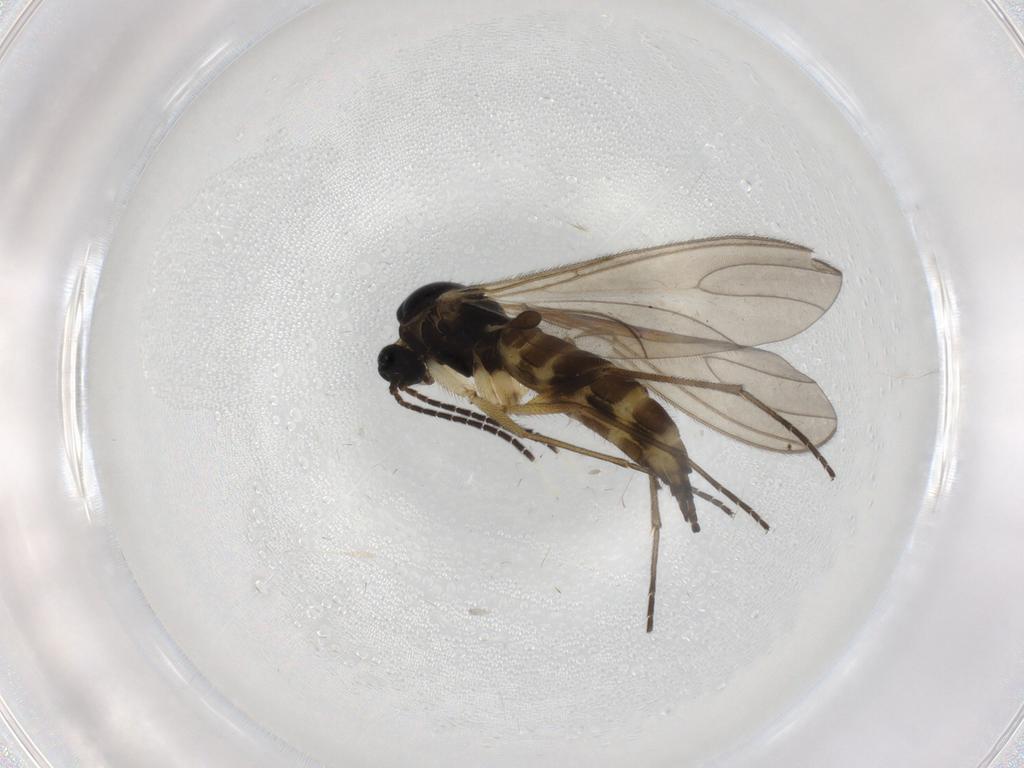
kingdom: Animalia
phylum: Arthropoda
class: Insecta
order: Diptera
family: Sciaridae
